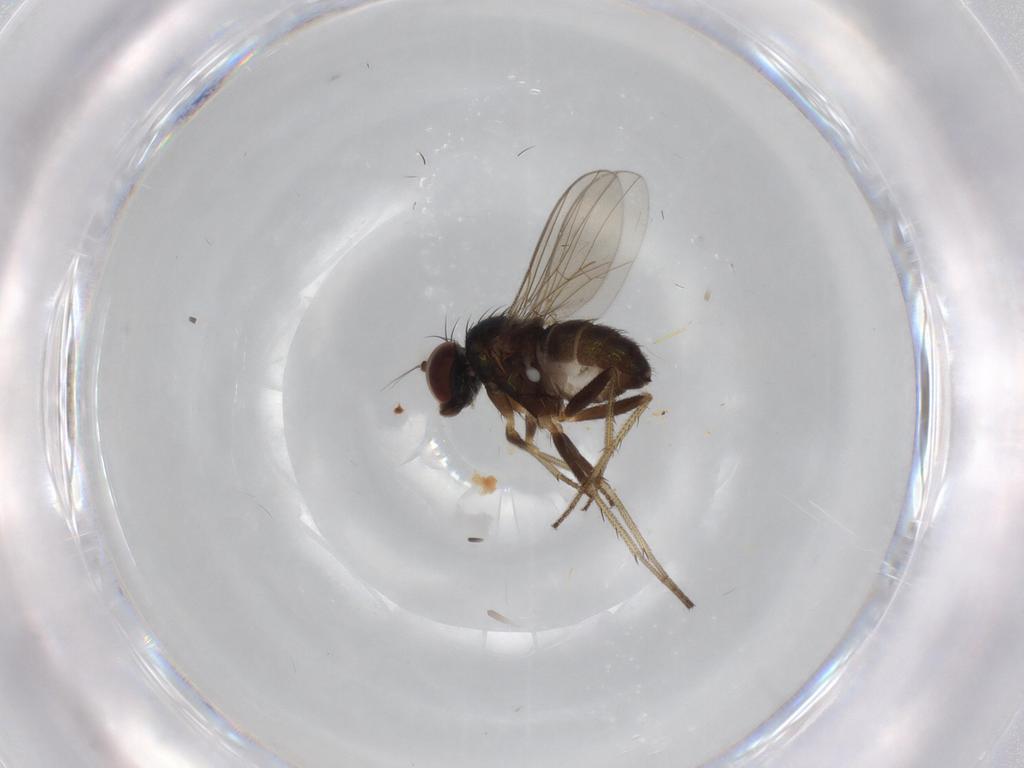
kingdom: Animalia
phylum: Arthropoda
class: Insecta
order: Diptera
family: Dolichopodidae
